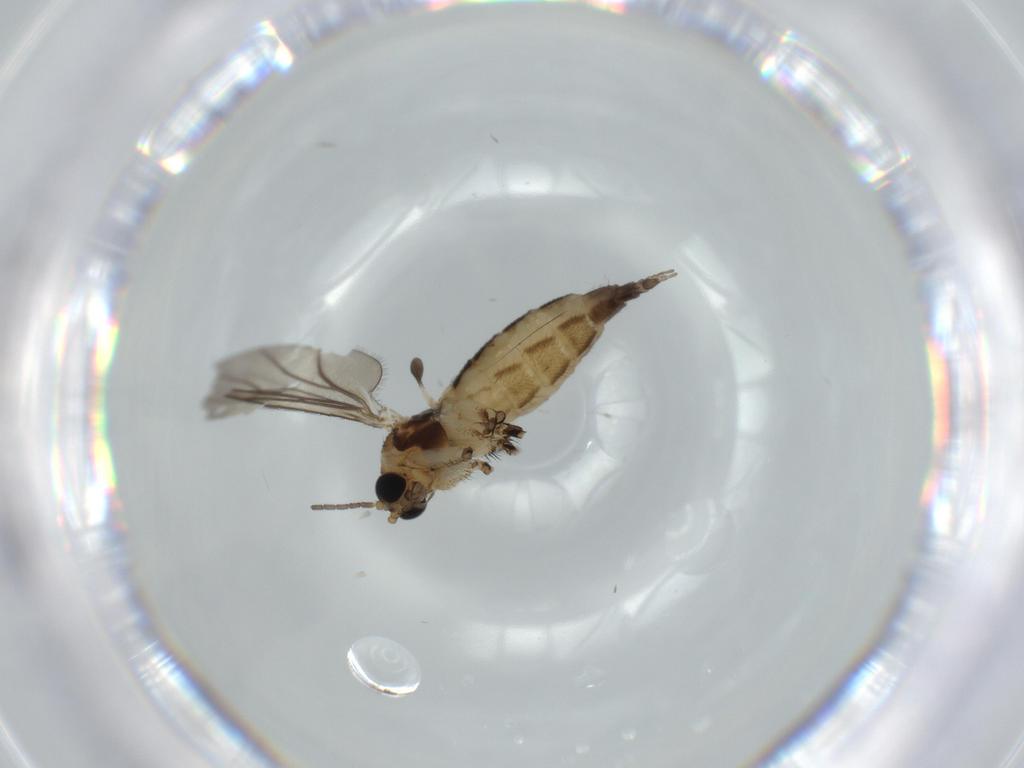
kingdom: Animalia
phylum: Arthropoda
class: Insecta
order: Diptera
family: Sciaridae
